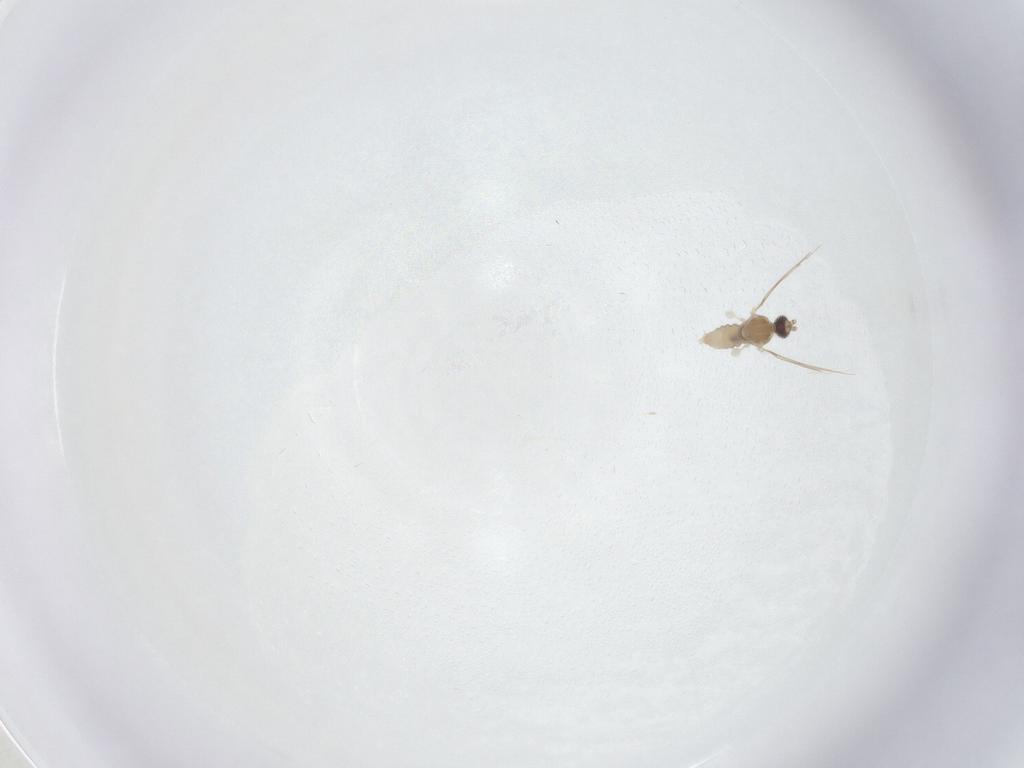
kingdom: Animalia
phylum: Arthropoda
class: Insecta
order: Diptera
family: Cecidomyiidae
